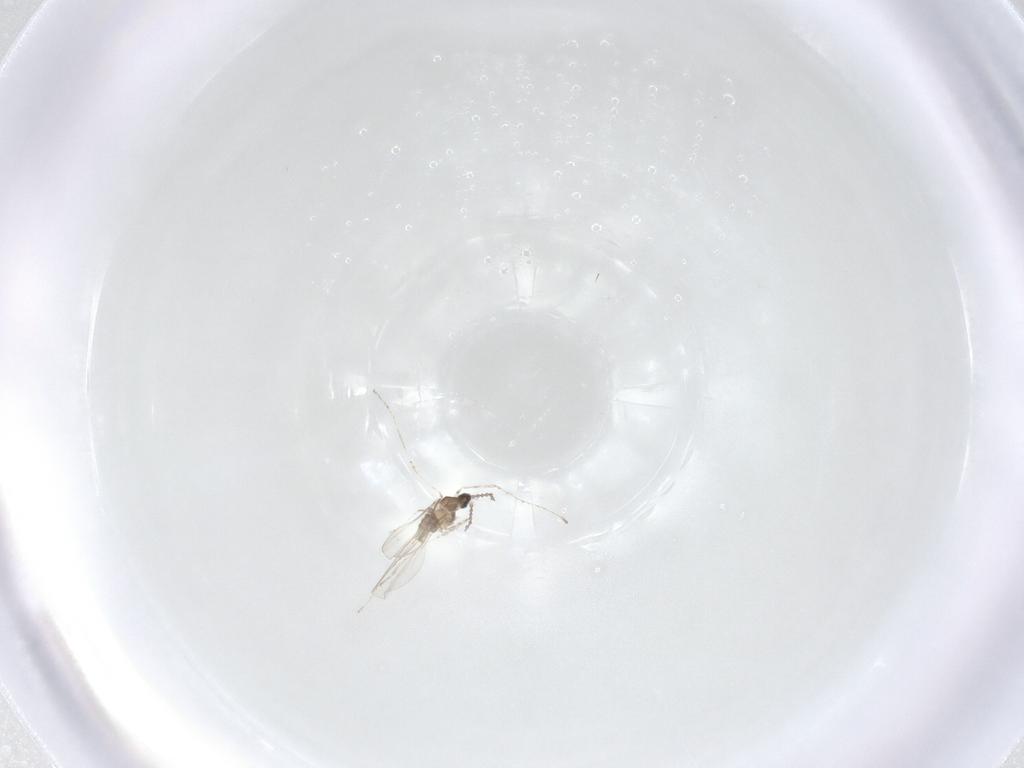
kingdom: Animalia
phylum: Arthropoda
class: Insecta
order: Diptera
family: Cecidomyiidae
